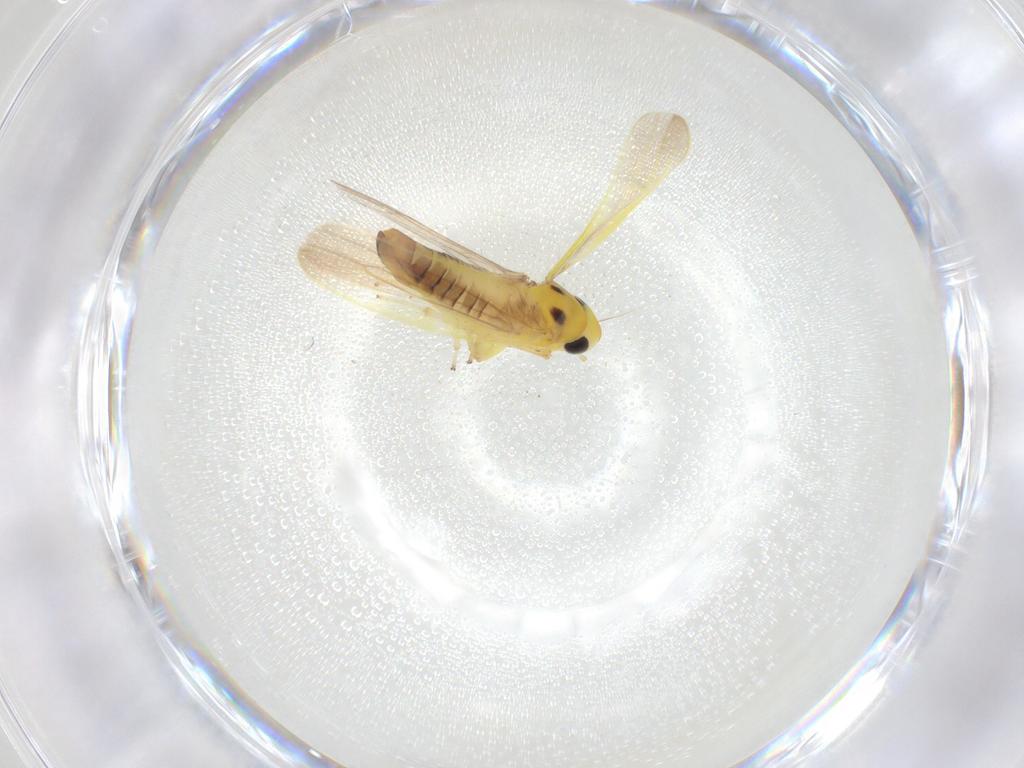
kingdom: Animalia
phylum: Arthropoda
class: Insecta
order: Hemiptera
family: Cicadellidae
